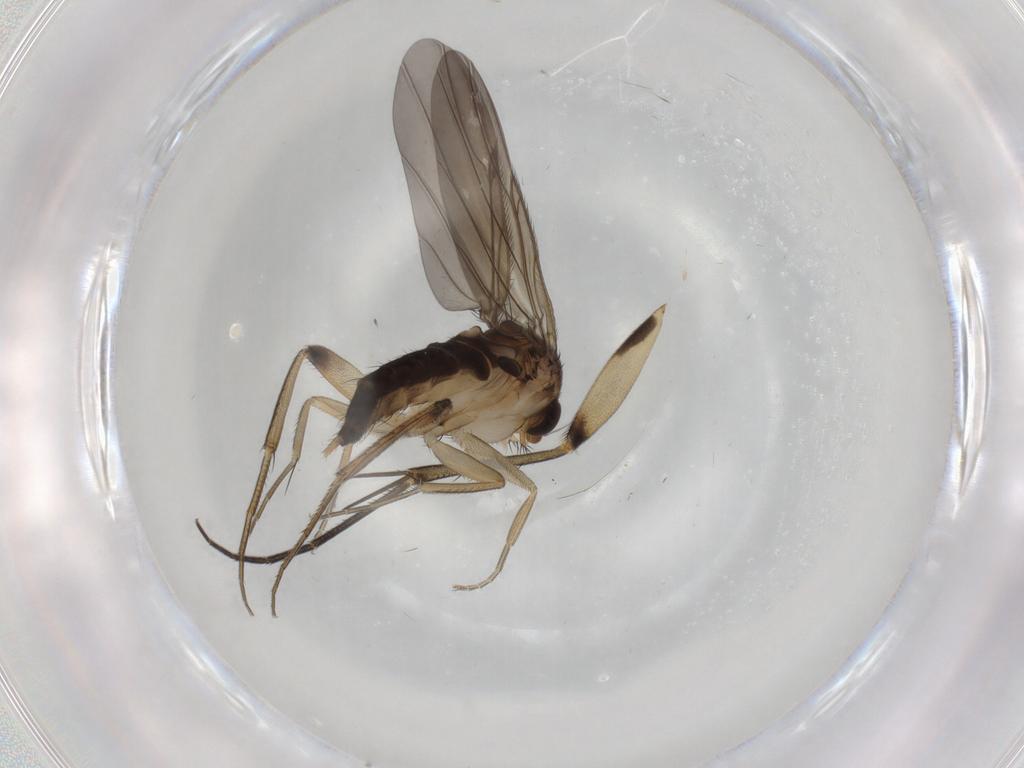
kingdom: Animalia
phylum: Arthropoda
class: Insecta
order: Diptera
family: Phoridae
